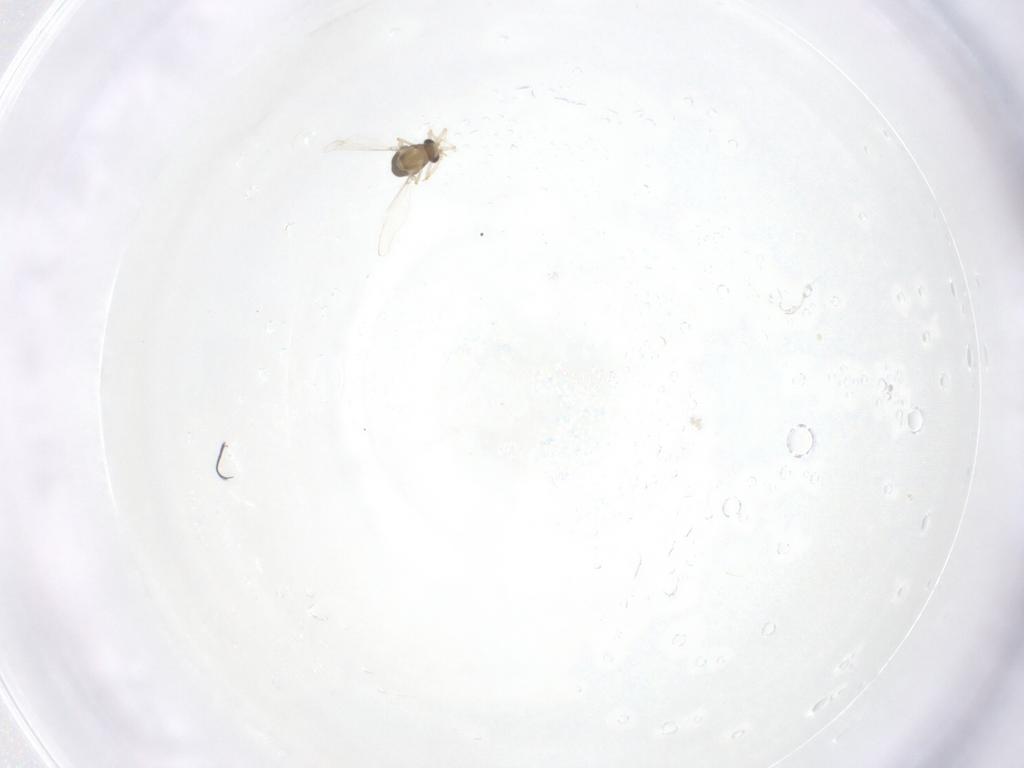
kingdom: Animalia
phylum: Arthropoda
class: Insecta
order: Diptera
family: Chironomidae
